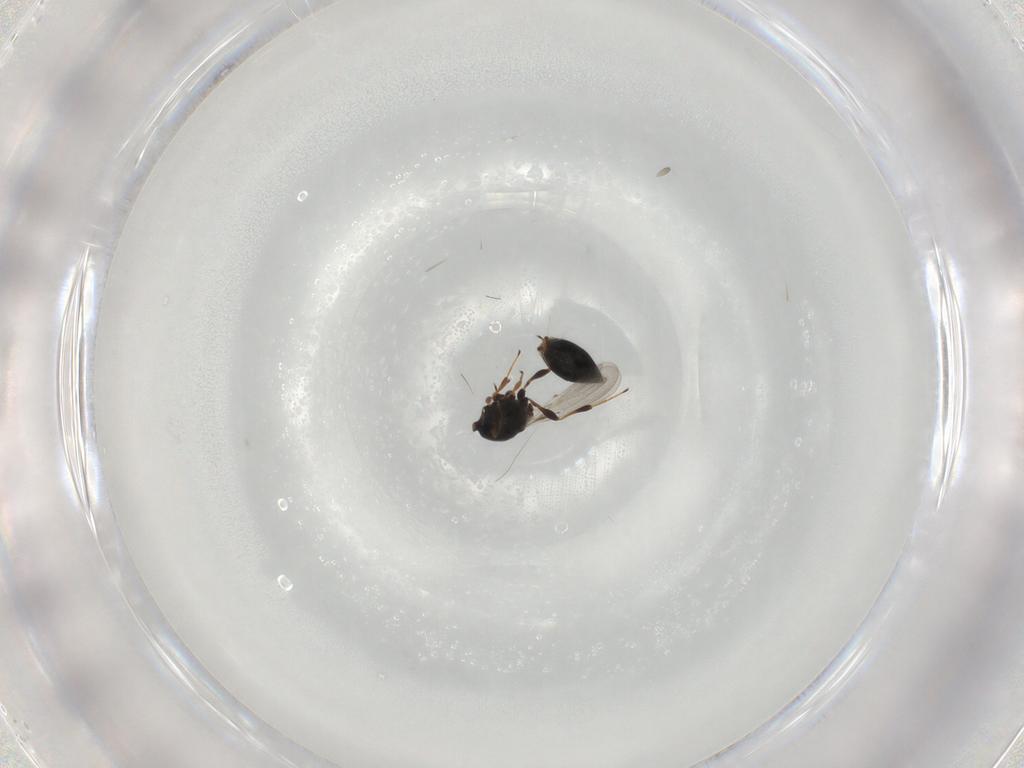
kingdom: Animalia
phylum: Arthropoda
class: Insecta
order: Hymenoptera
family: Platygastridae
